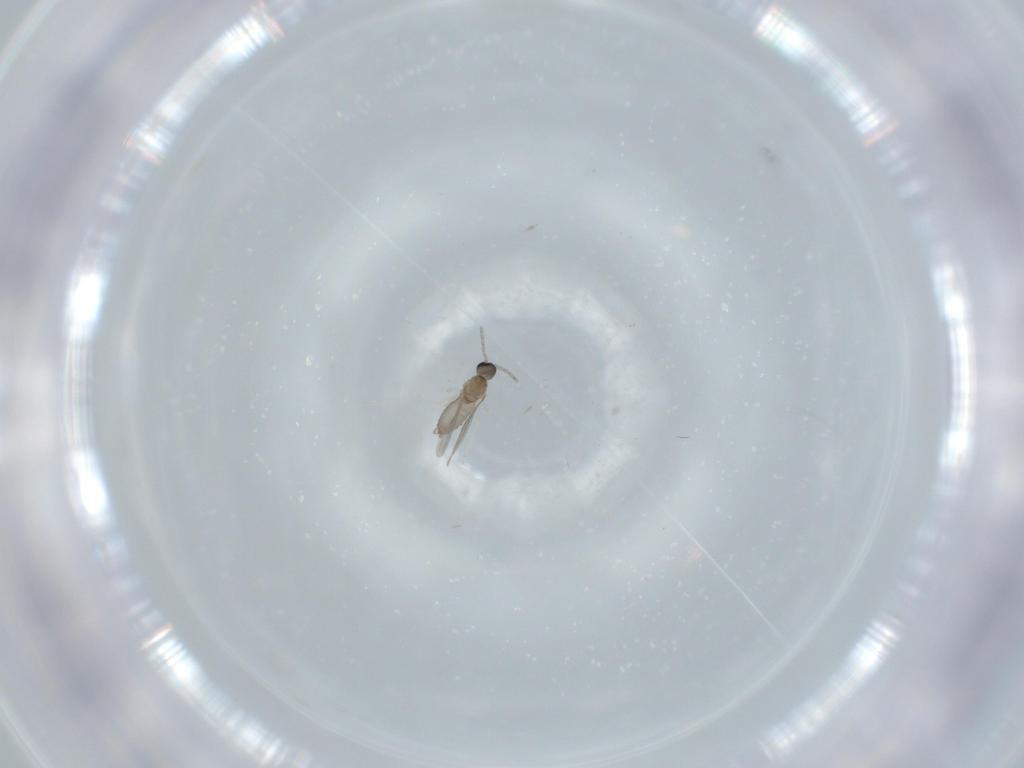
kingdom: Animalia
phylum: Arthropoda
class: Insecta
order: Diptera
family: Cecidomyiidae
